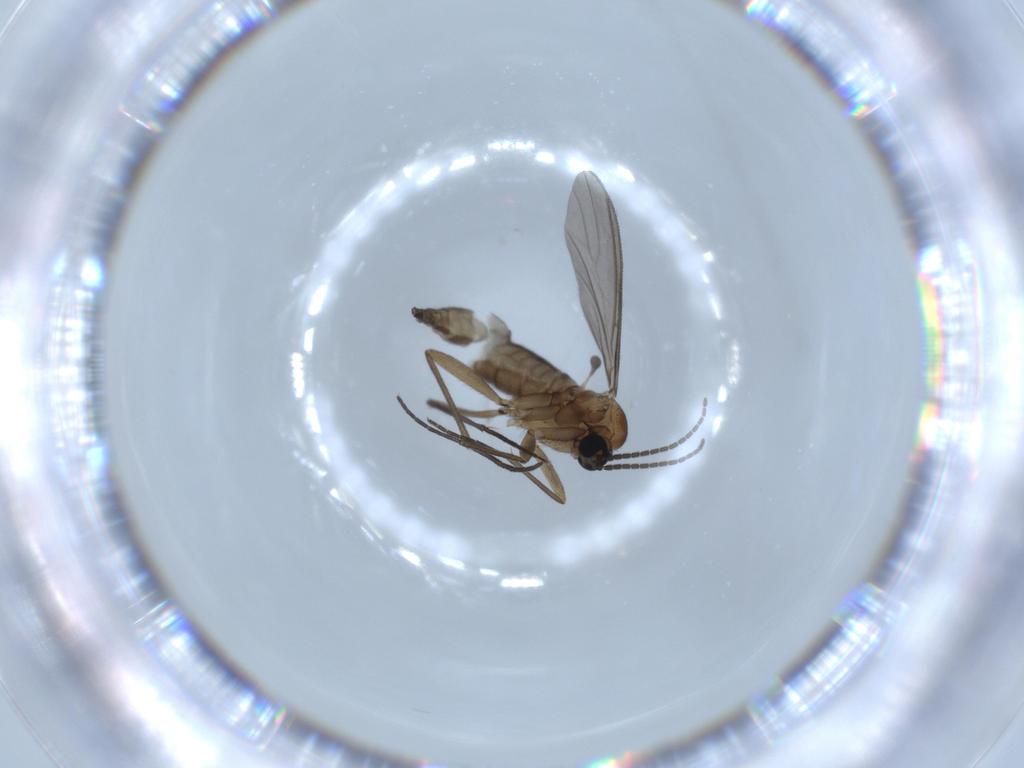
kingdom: Animalia
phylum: Arthropoda
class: Insecta
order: Diptera
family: Sciaridae
